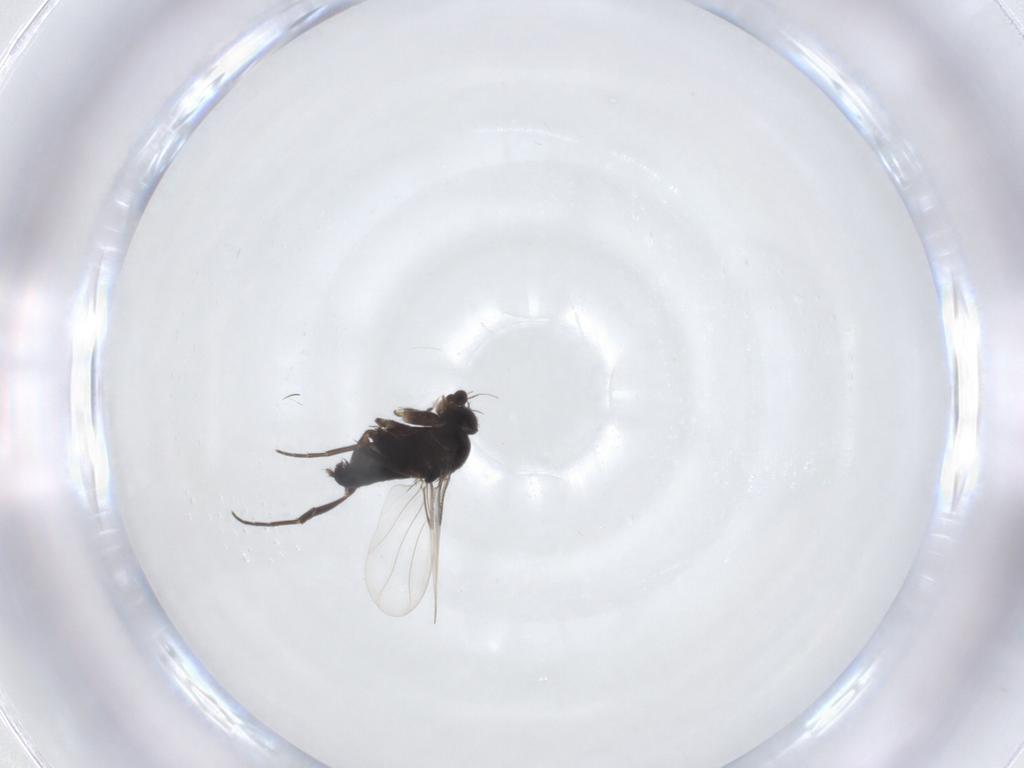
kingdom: Animalia
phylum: Arthropoda
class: Insecta
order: Diptera
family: Phoridae
